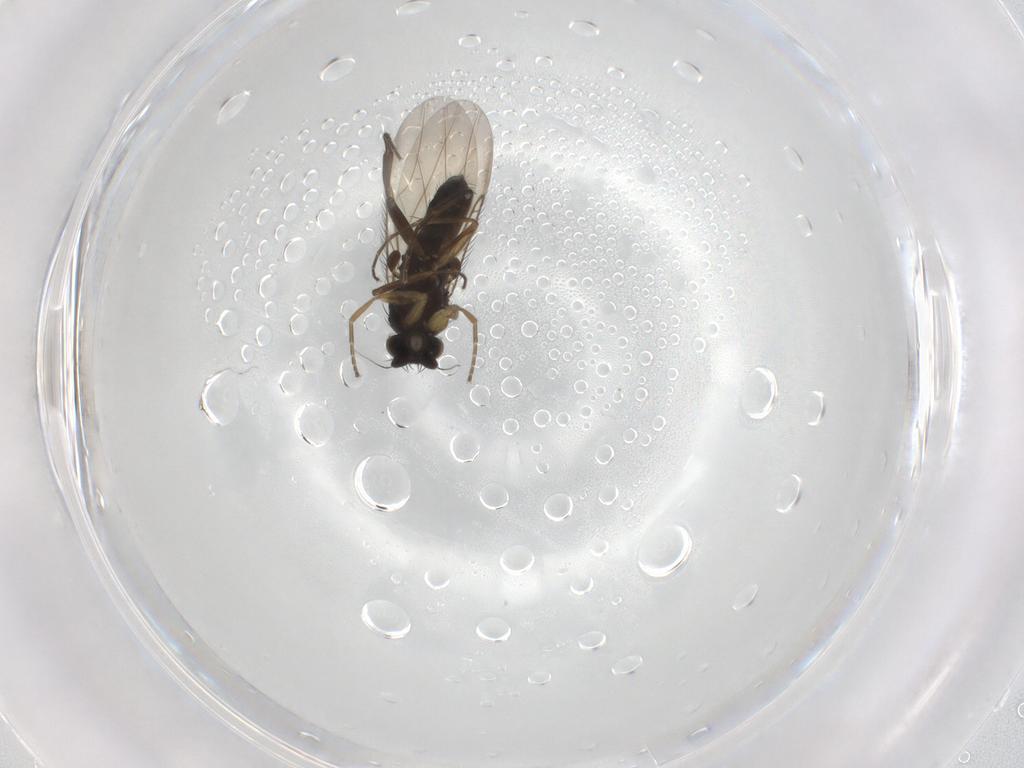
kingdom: Animalia
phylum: Arthropoda
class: Insecta
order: Diptera
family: Phoridae
